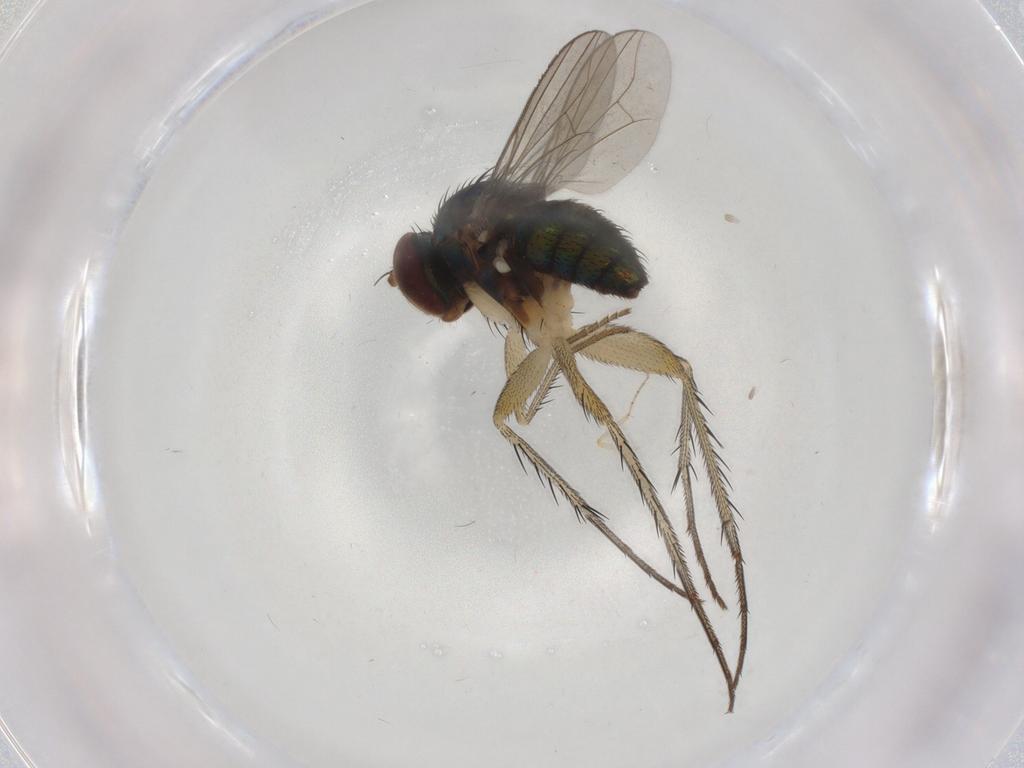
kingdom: Animalia
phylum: Arthropoda
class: Insecta
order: Diptera
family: Dolichopodidae
